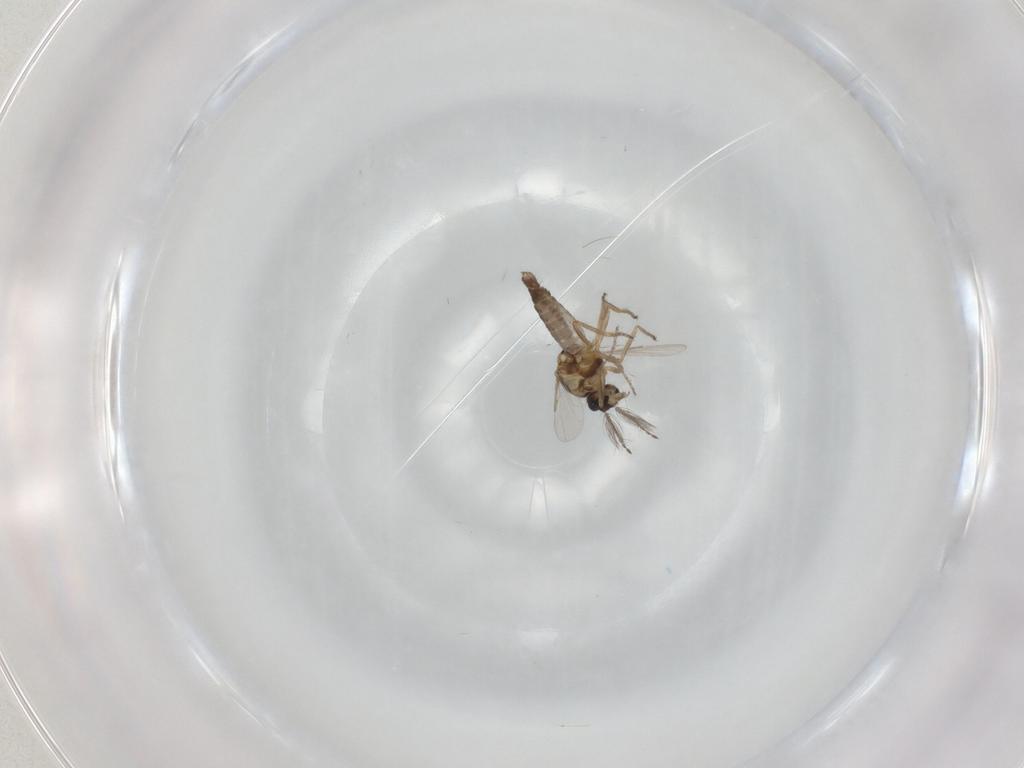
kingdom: Animalia
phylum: Arthropoda
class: Insecta
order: Diptera
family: Ceratopogonidae
